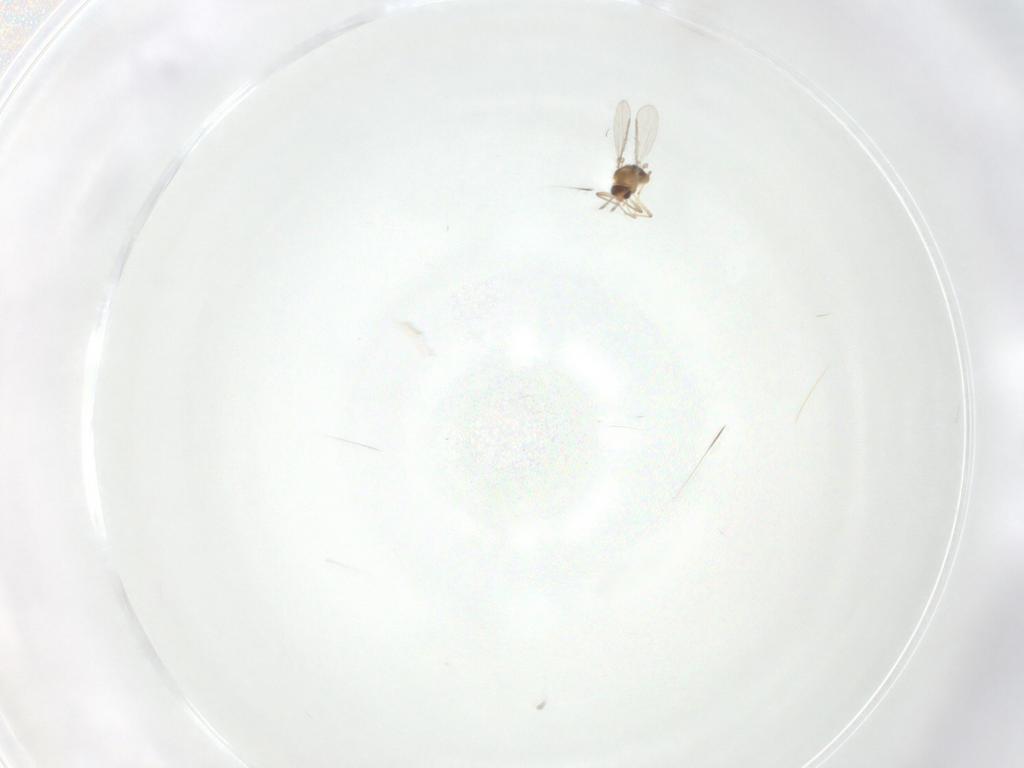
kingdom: Animalia
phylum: Arthropoda
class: Insecta
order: Diptera
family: Chironomidae
